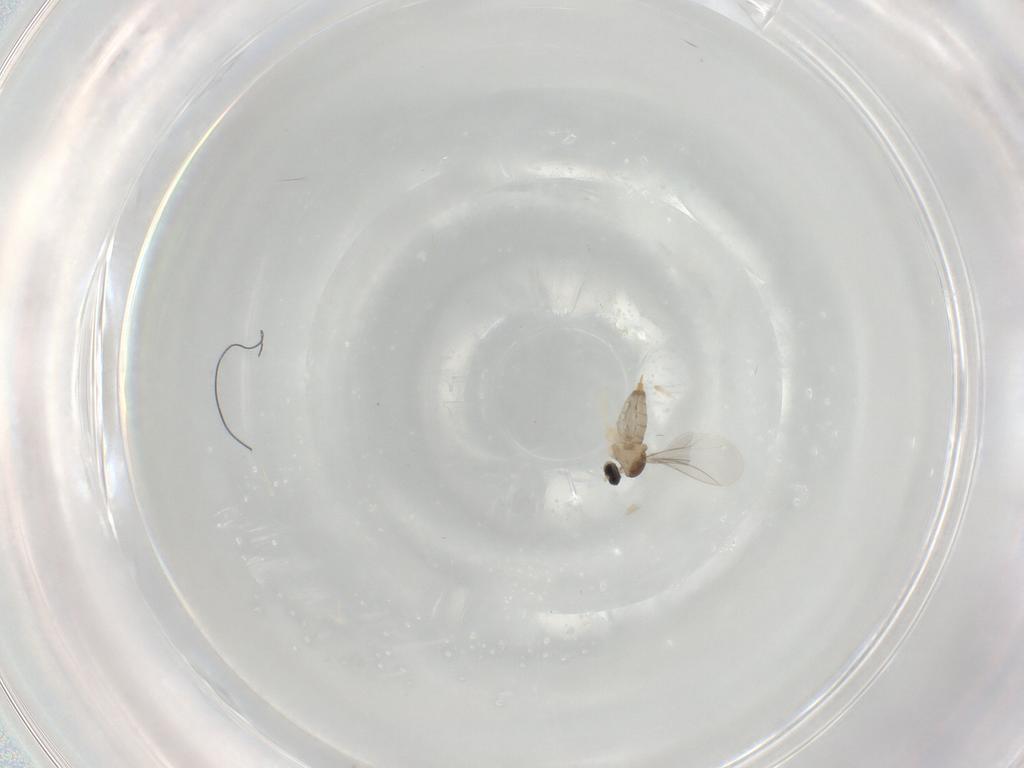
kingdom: Animalia
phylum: Arthropoda
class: Insecta
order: Diptera
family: Cecidomyiidae
